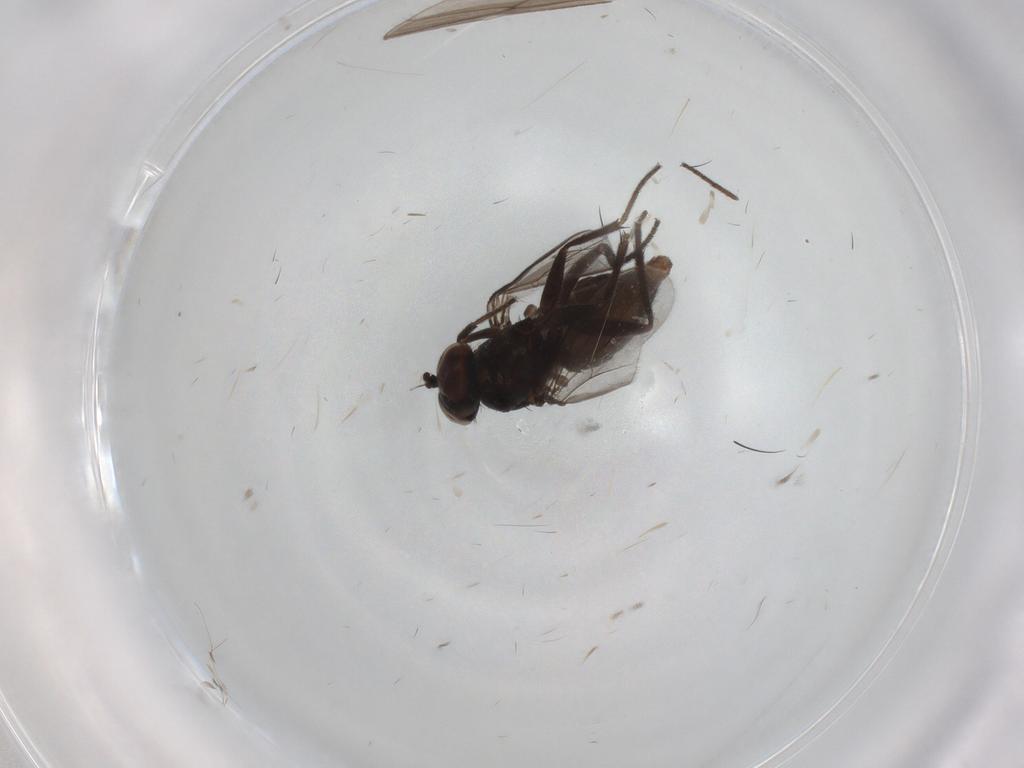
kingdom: Animalia
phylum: Arthropoda
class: Insecta
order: Diptera
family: Dolichopodidae
